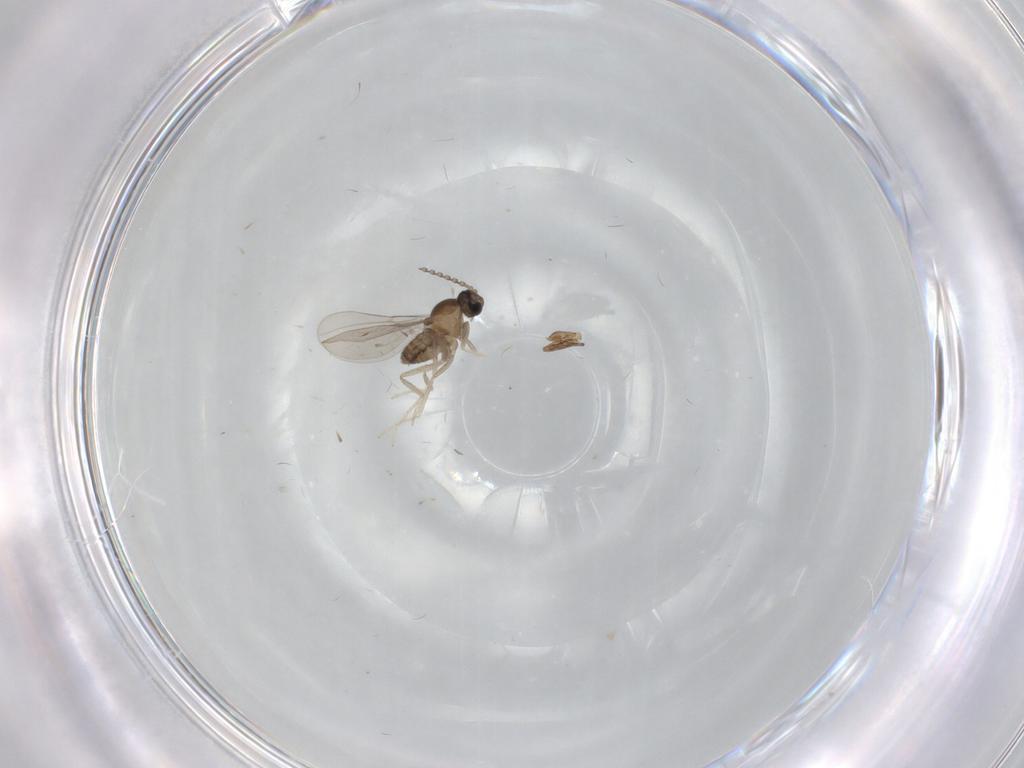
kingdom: Animalia
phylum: Arthropoda
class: Insecta
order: Diptera
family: Cecidomyiidae
